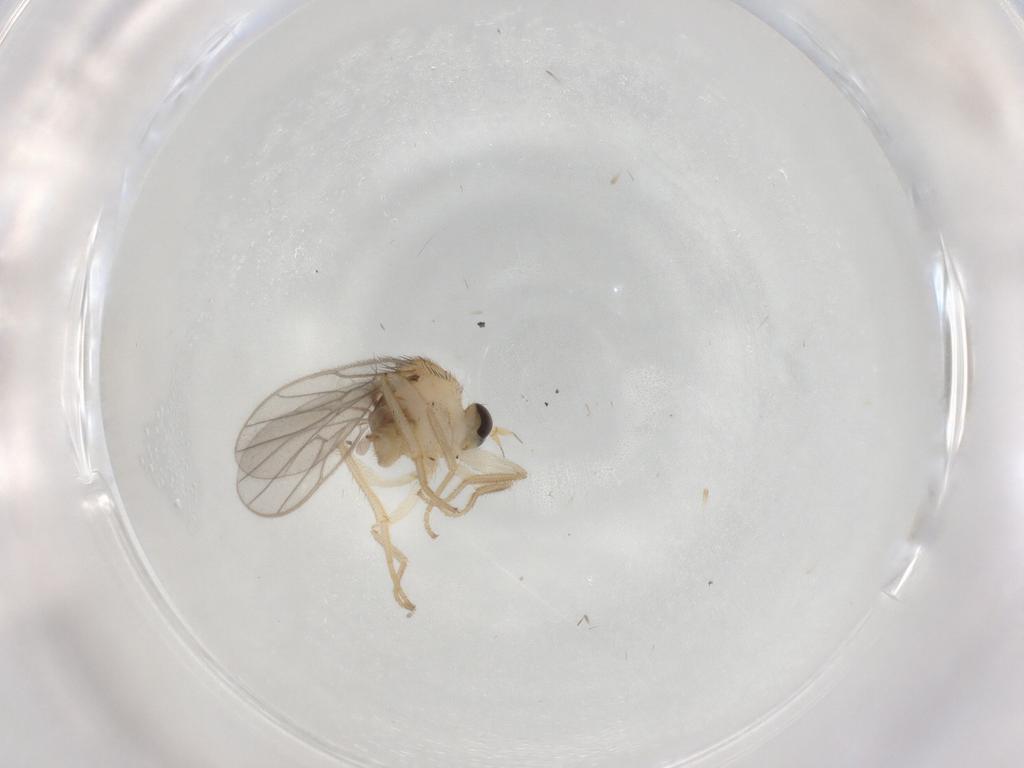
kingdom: Animalia
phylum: Arthropoda
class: Insecta
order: Diptera
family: Hybotidae
